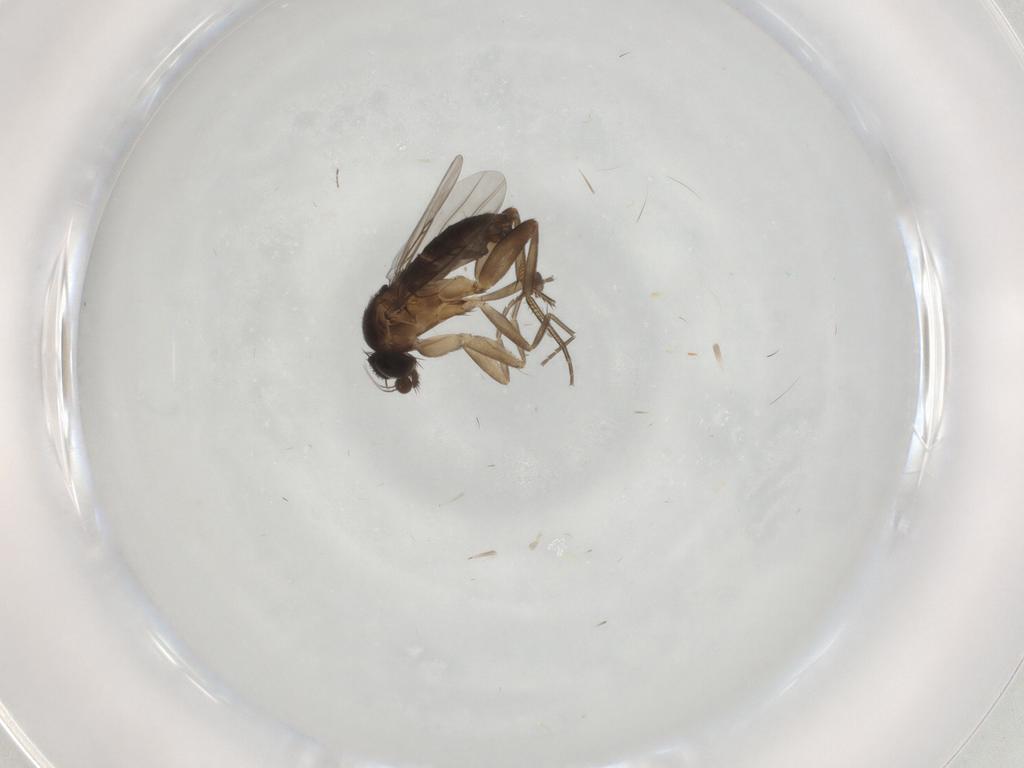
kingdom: Animalia
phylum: Arthropoda
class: Insecta
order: Diptera
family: Phoridae
